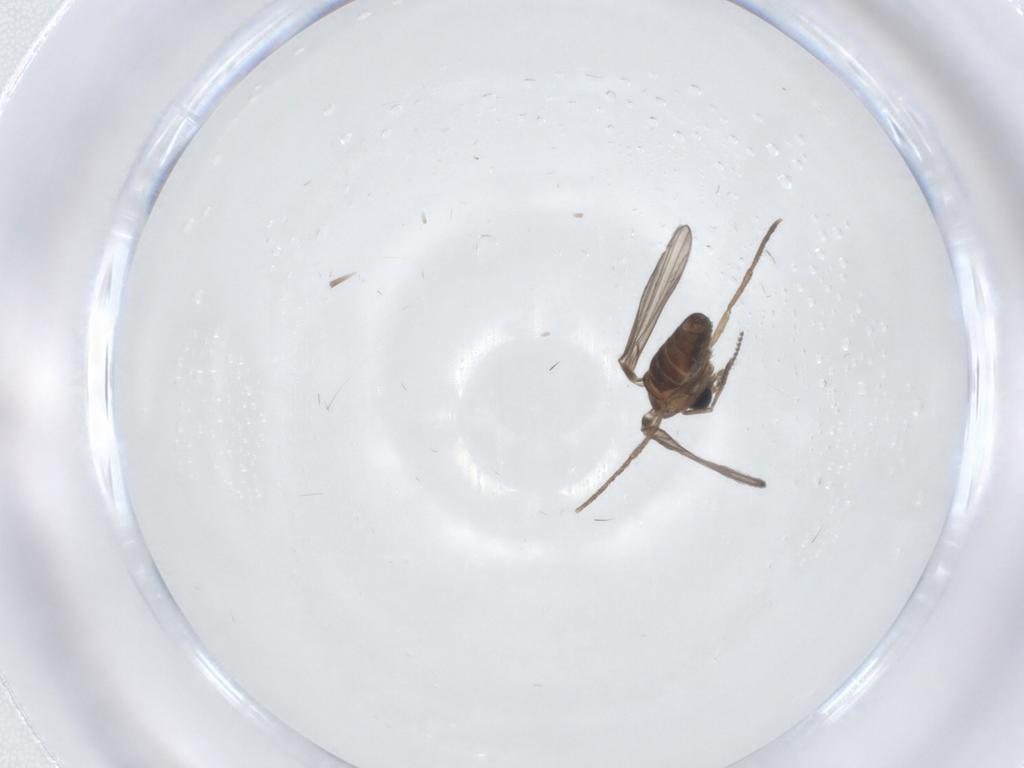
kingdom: Animalia
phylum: Arthropoda
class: Insecta
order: Diptera
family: Psychodidae
